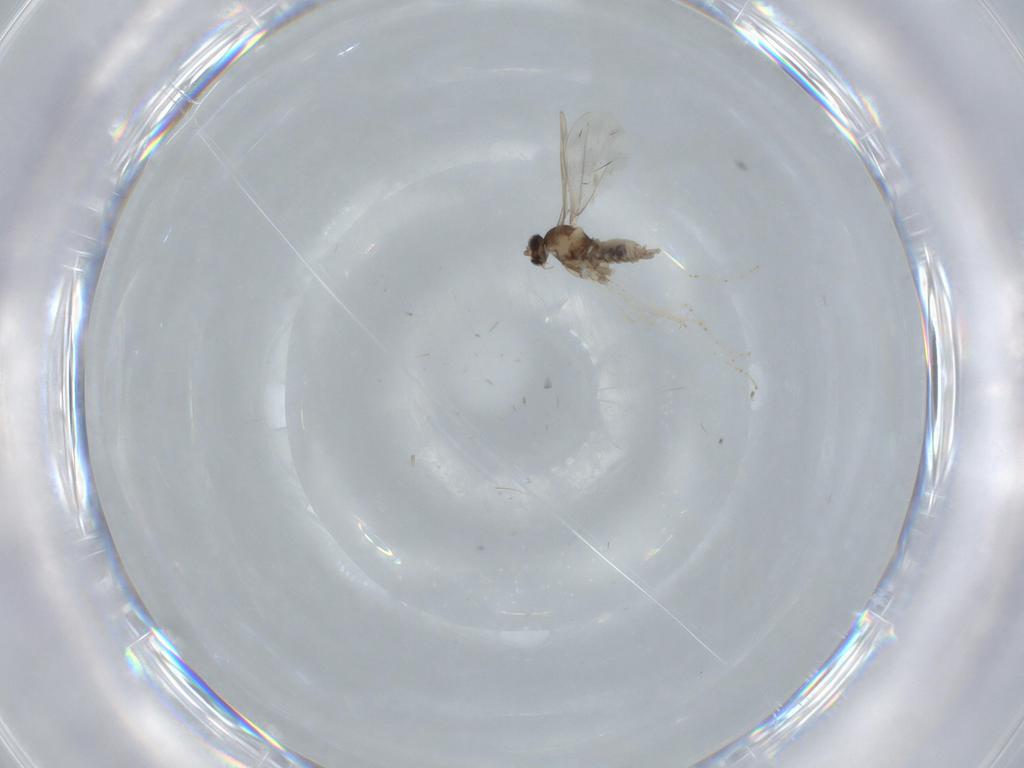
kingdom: Animalia
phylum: Arthropoda
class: Insecta
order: Diptera
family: Cecidomyiidae
